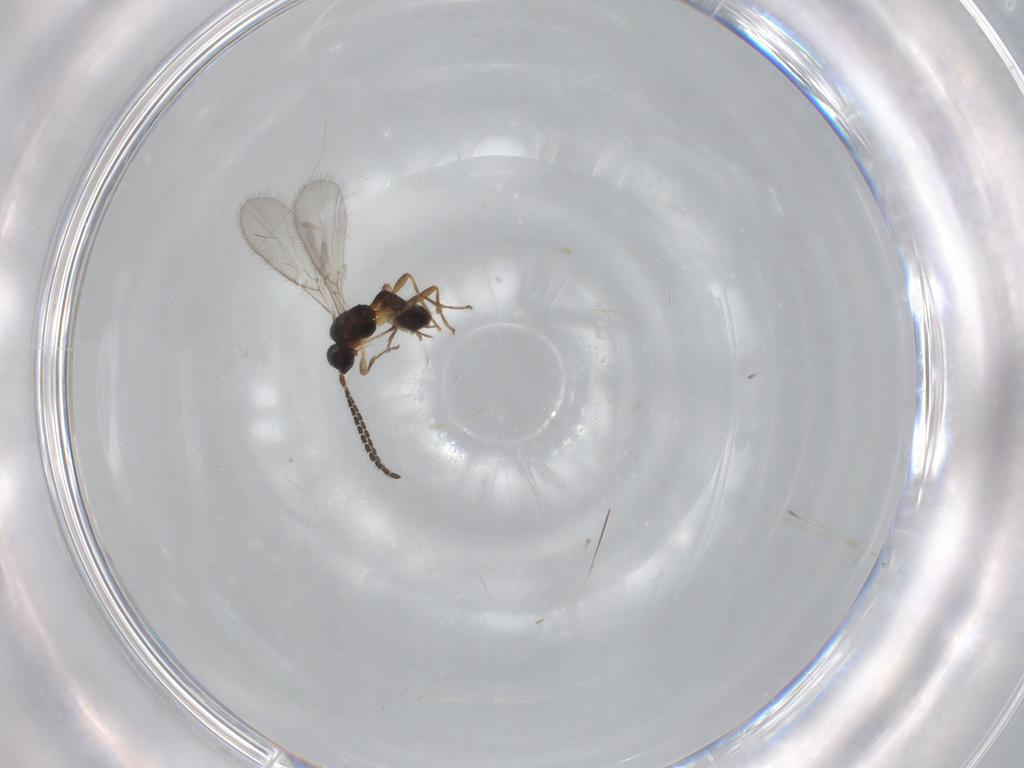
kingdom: Animalia
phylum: Arthropoda
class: Insecta
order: Hymenoptera
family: Braconidae
